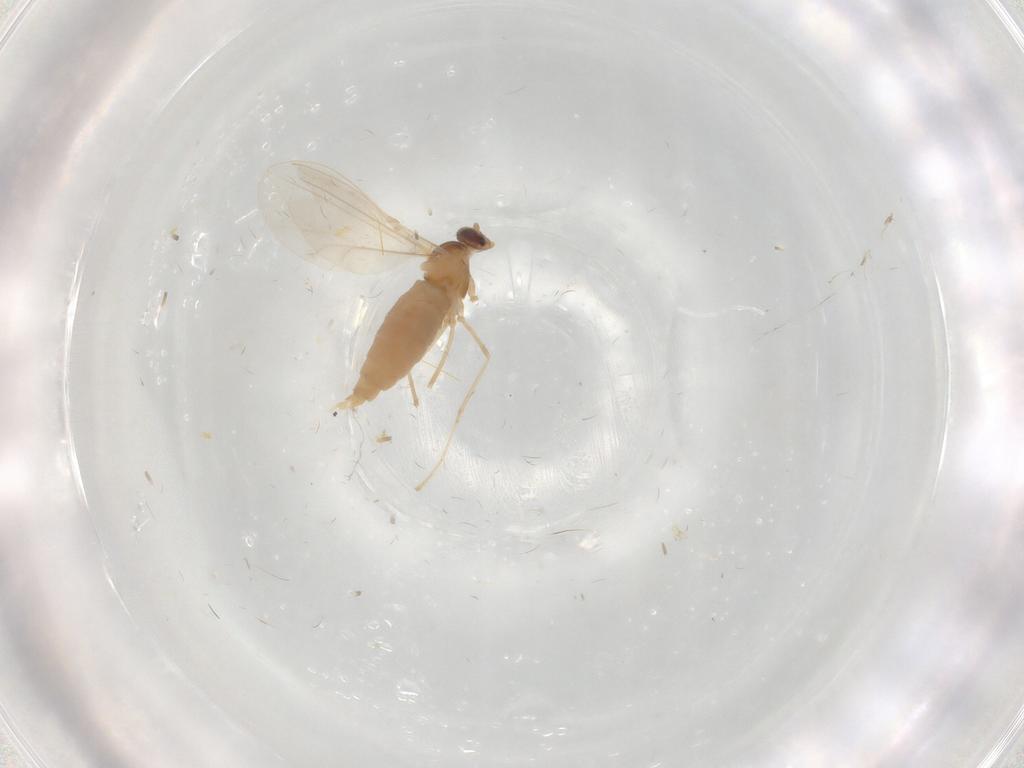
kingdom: Animalia
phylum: Arthropoda
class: Insecta
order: Diptera
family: Cecidomyiidae
